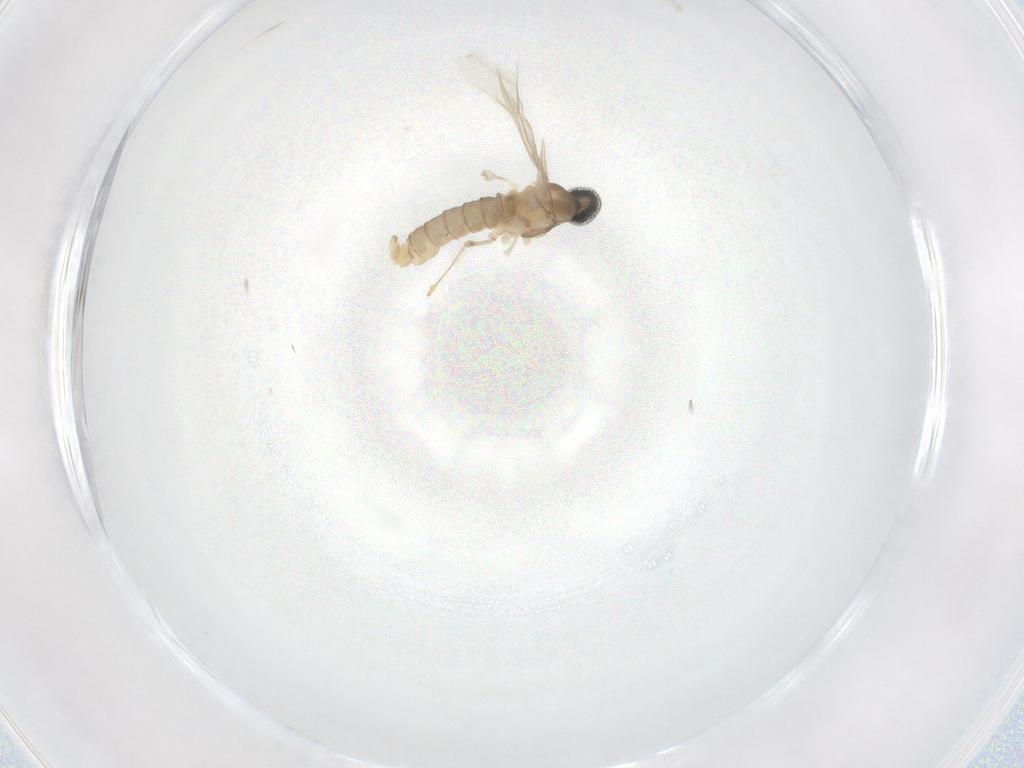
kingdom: Animalia
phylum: Arthropoda
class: Insecta
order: Diptera
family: Cecidomyiidae
